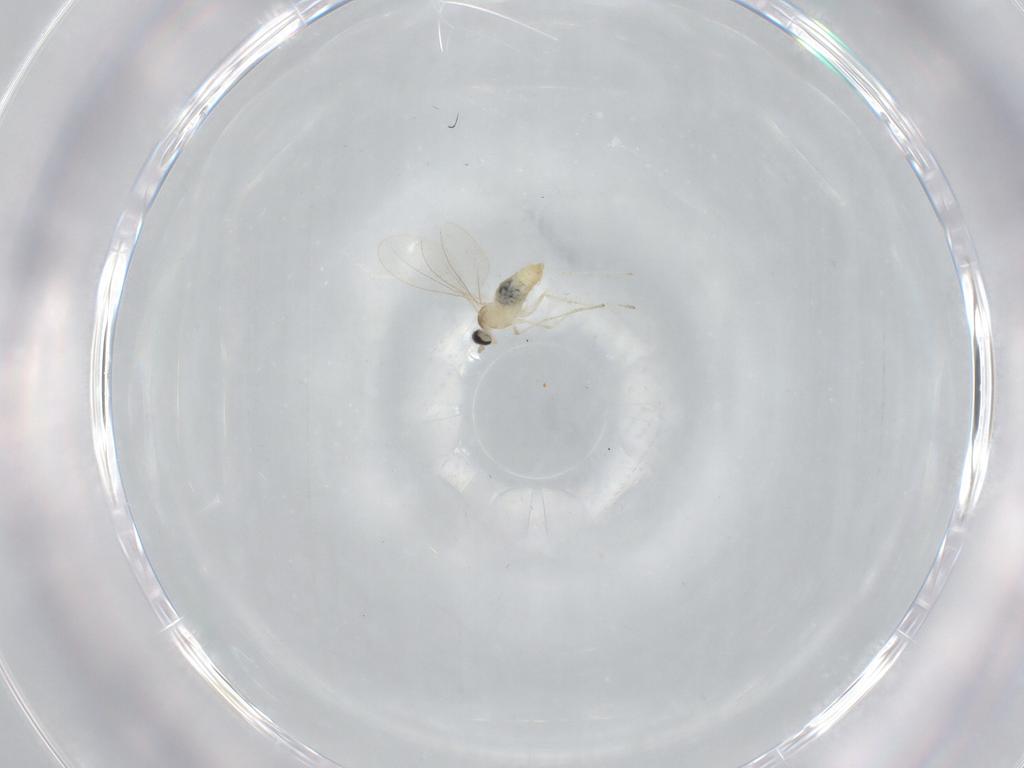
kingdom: Animalia
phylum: Arthropoda
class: Insecta
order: Diptera
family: Cecidomyiidae
